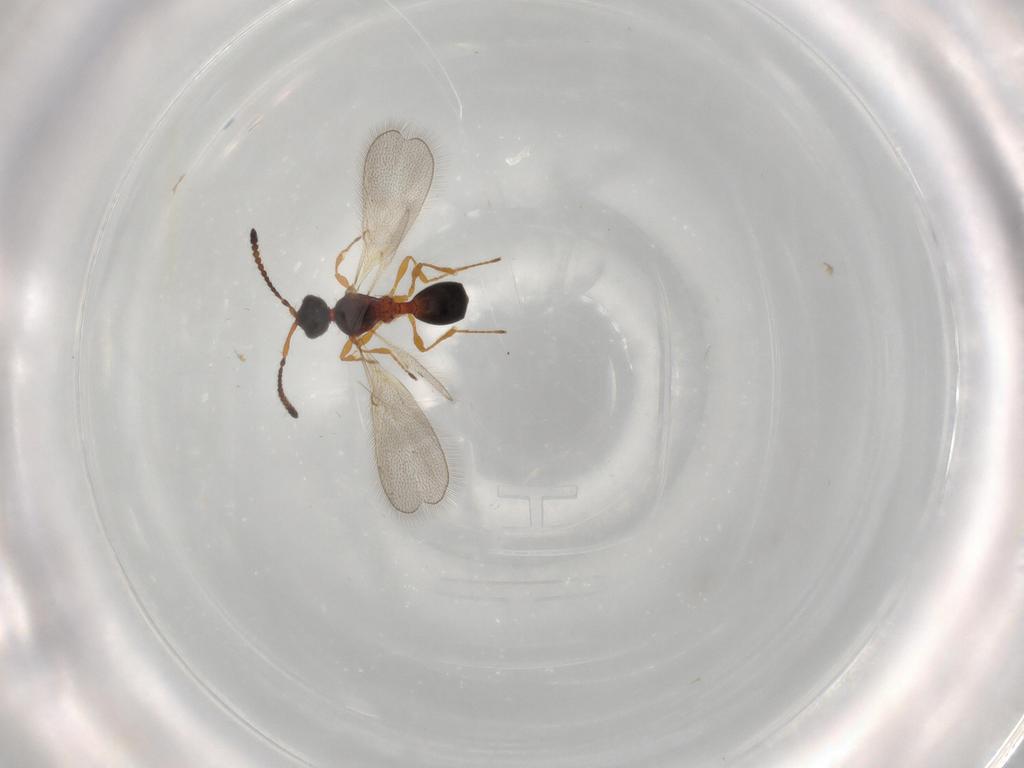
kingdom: Animalia
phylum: Arthropoda
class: Insecta
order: Hymenoptera
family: Diapriidae
